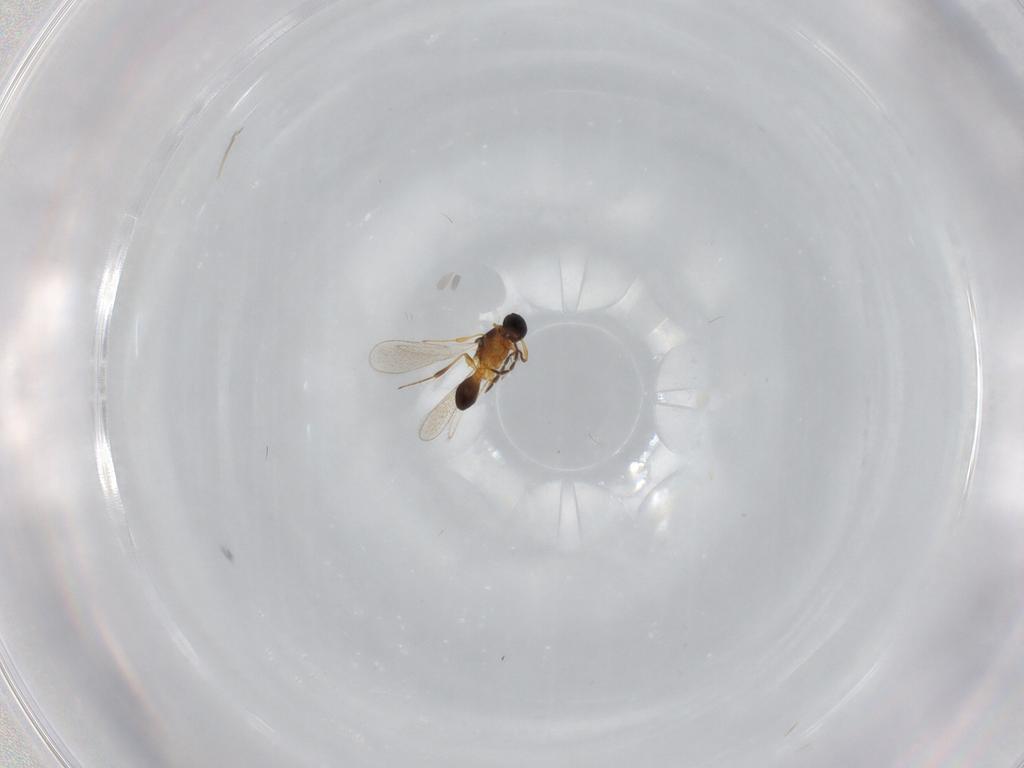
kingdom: Animalia
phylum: Arthropoda
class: Insecta
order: Hymenoptera
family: Platygastridae
